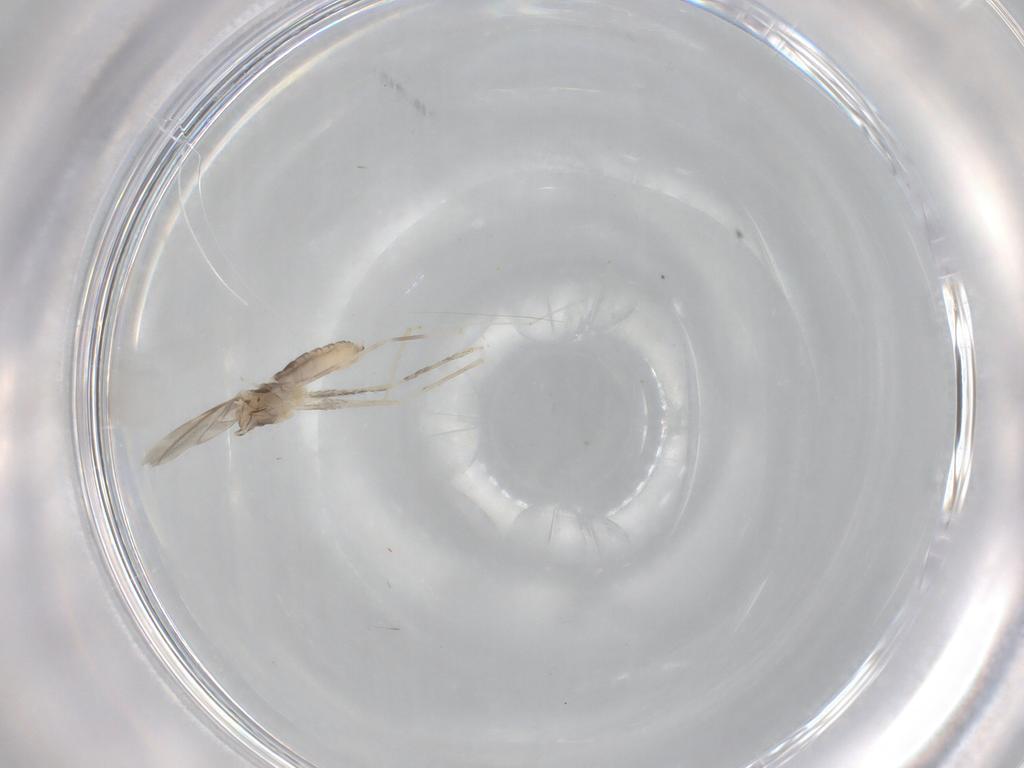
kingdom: Animalia
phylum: Arthropoda
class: Insecta
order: Diptera
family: Cecidomyiidae
